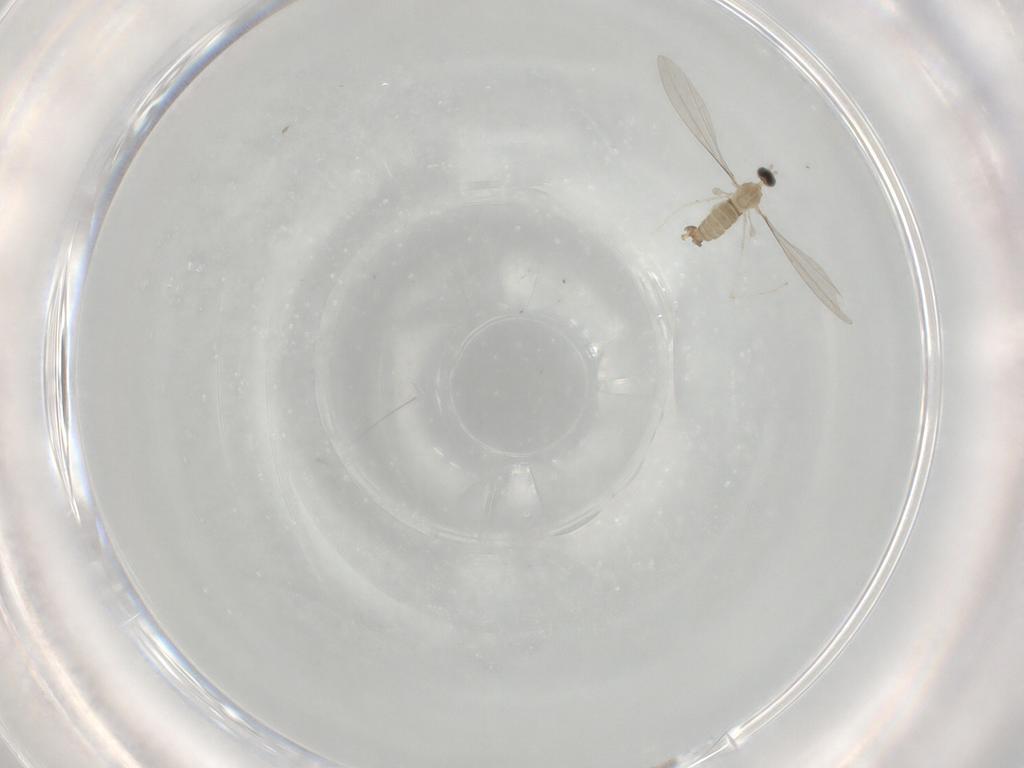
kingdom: Animalia
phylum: Arthropoda
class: Insecta
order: Diptera
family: Cecidomyiidae
